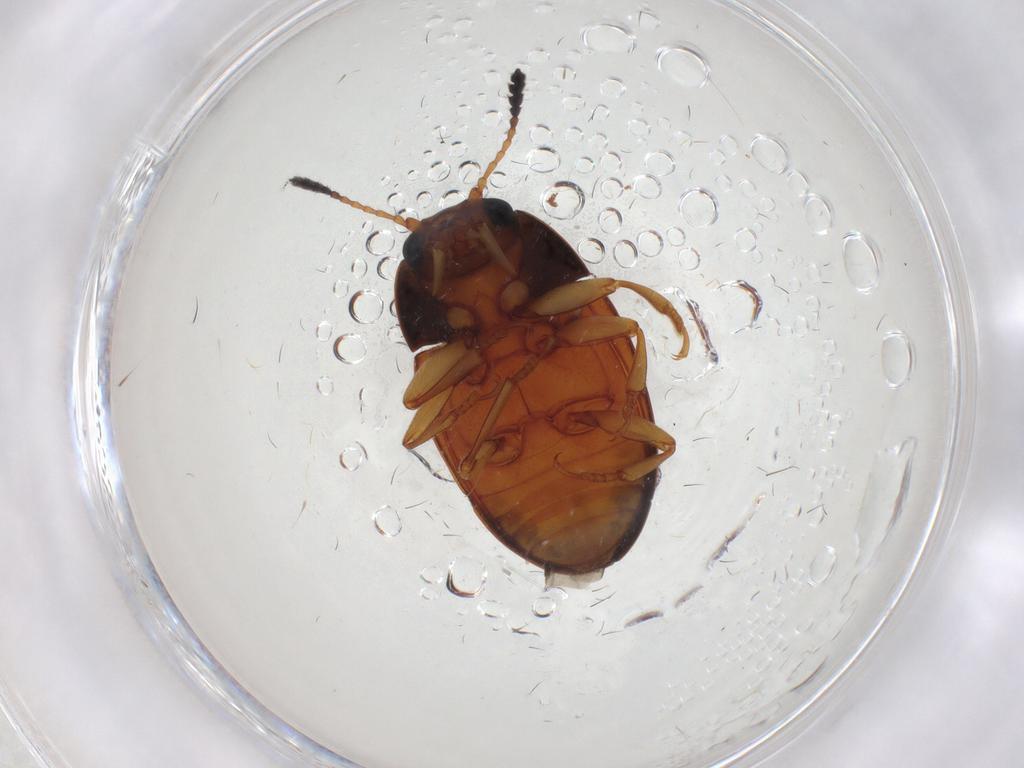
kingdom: Animalia
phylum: Arthropoda
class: Insecta
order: Coleoptera
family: Erotylidae
